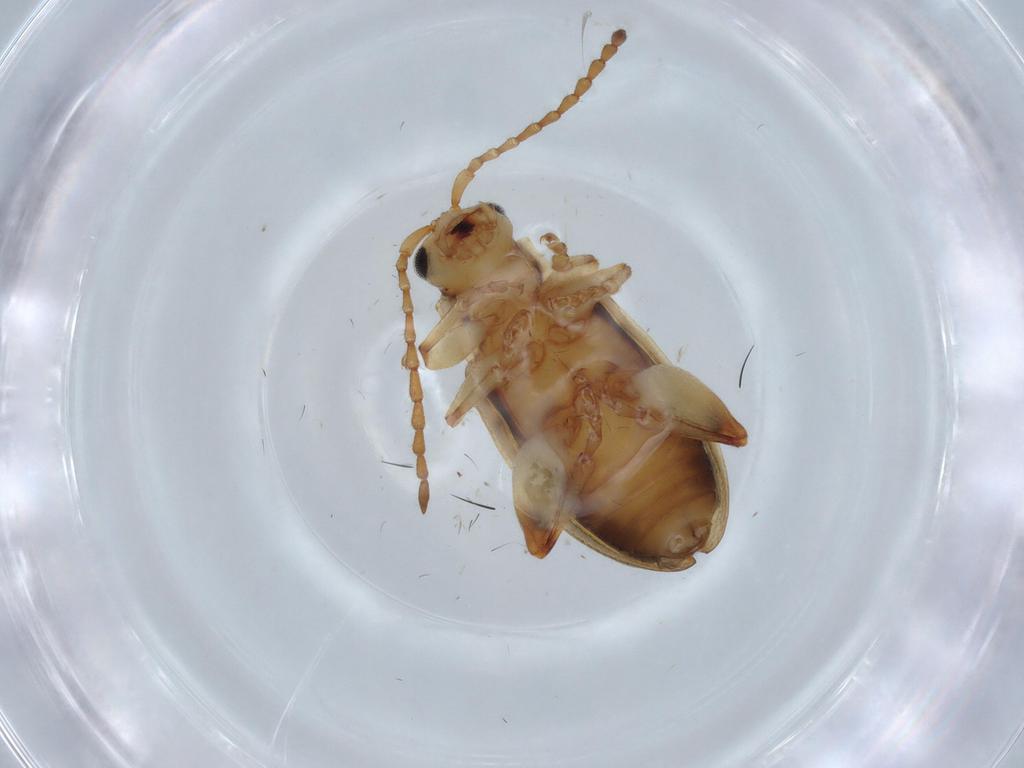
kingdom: Animalia
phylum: Arthropoda
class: Insecta
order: Coleoptera
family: Chrysomelidae
